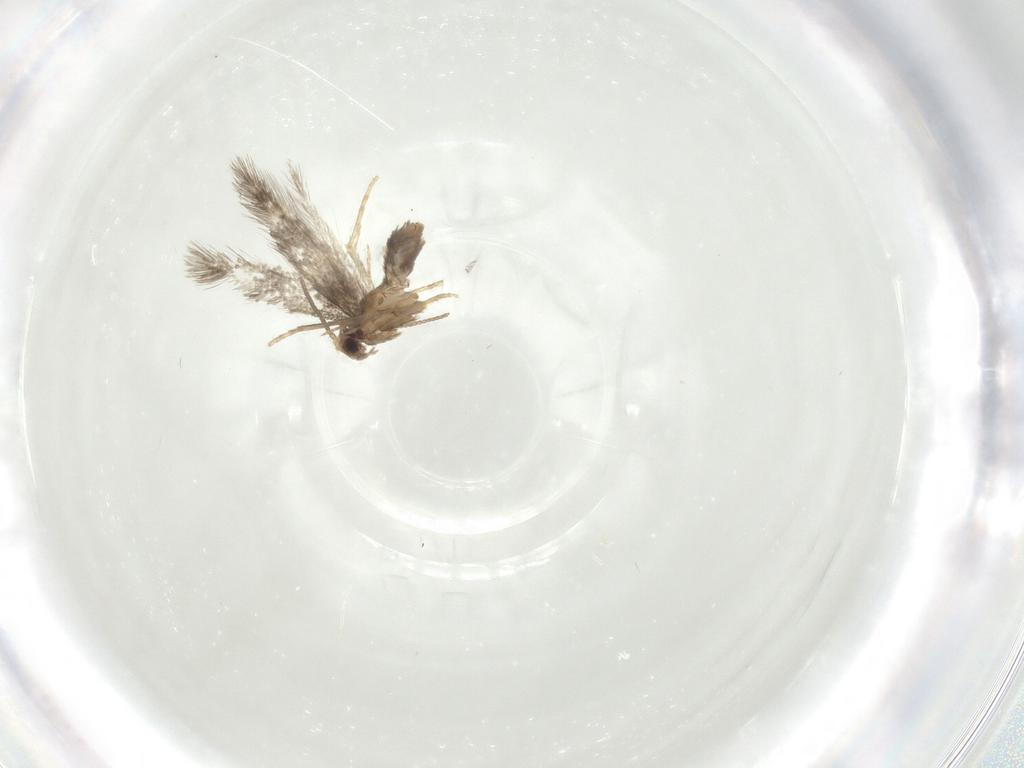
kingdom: Animalia
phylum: Arthropoda
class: Insecta
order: Lepidoptera
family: Nepticulidae
